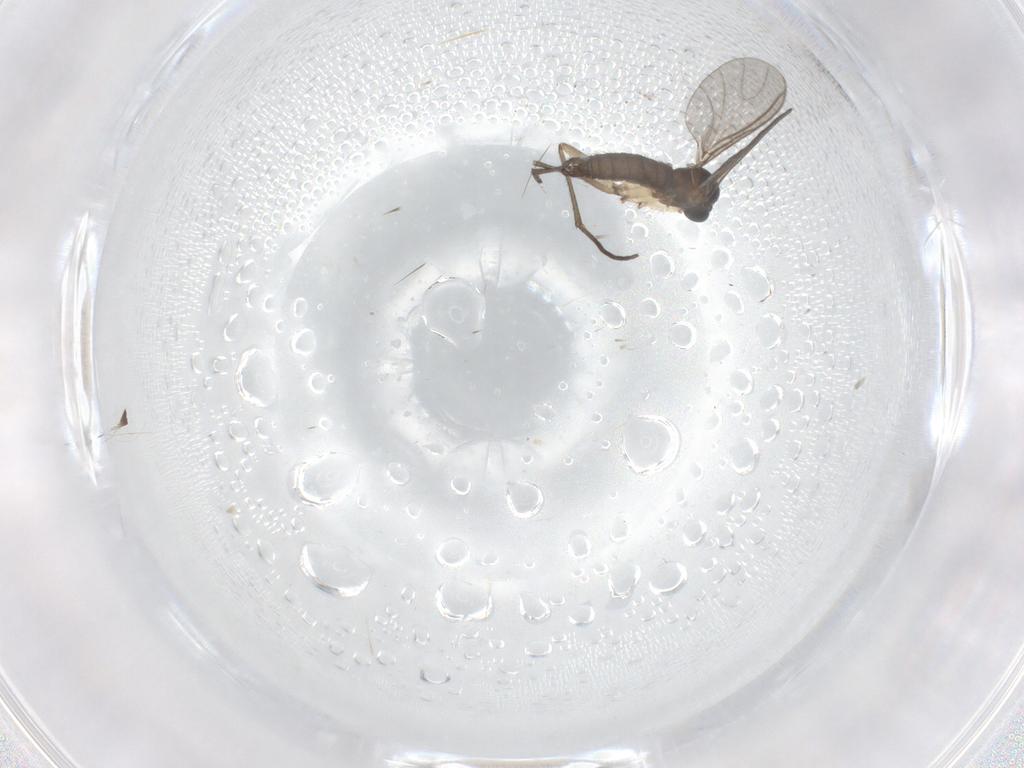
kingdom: Animalia
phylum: Arthropoda
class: Insecta
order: Diptera
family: Sciaridae
